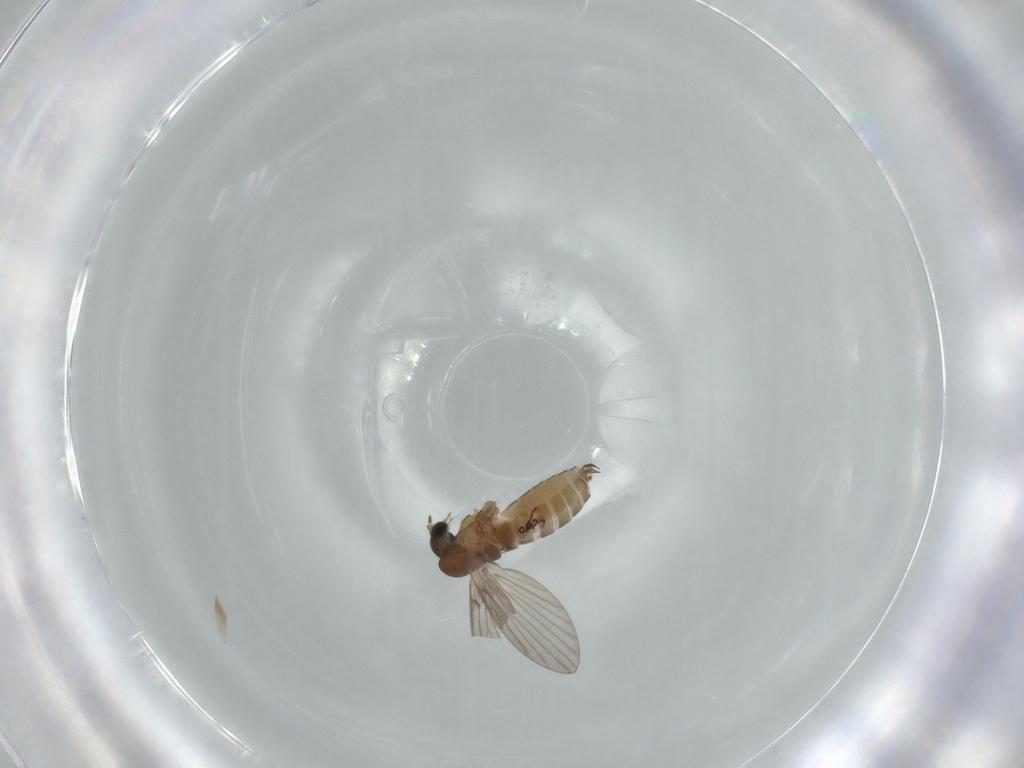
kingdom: Animalia
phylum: Arthropoda
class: Insecta
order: Diptera
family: Psychodidae
